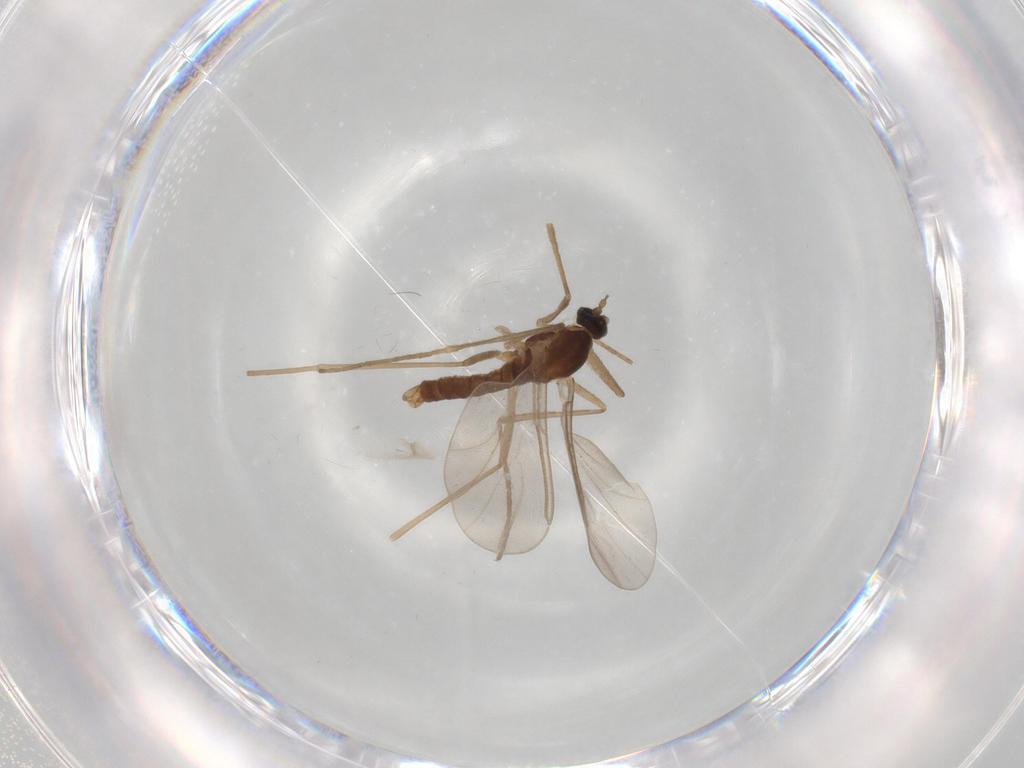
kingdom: Animalia
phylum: Arthropoda
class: Insecta
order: Diptera
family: Cecidomyiidae
